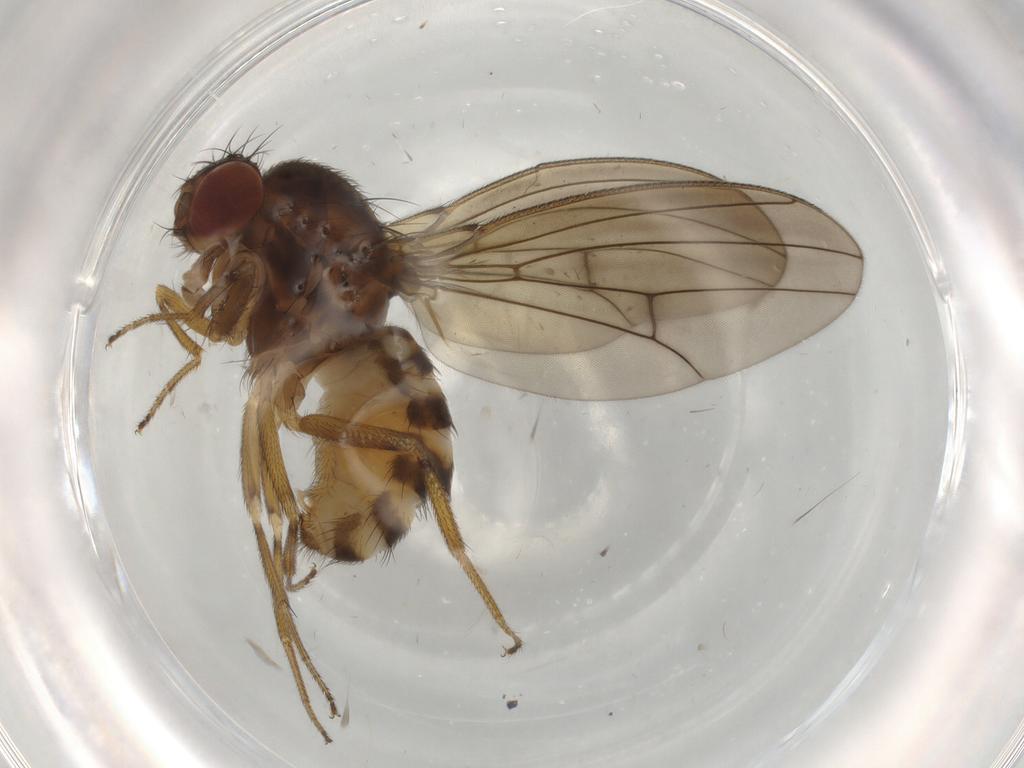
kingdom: Animalia
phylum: Arthropoda
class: Insecta
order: Diptera
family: Drosophilidae
